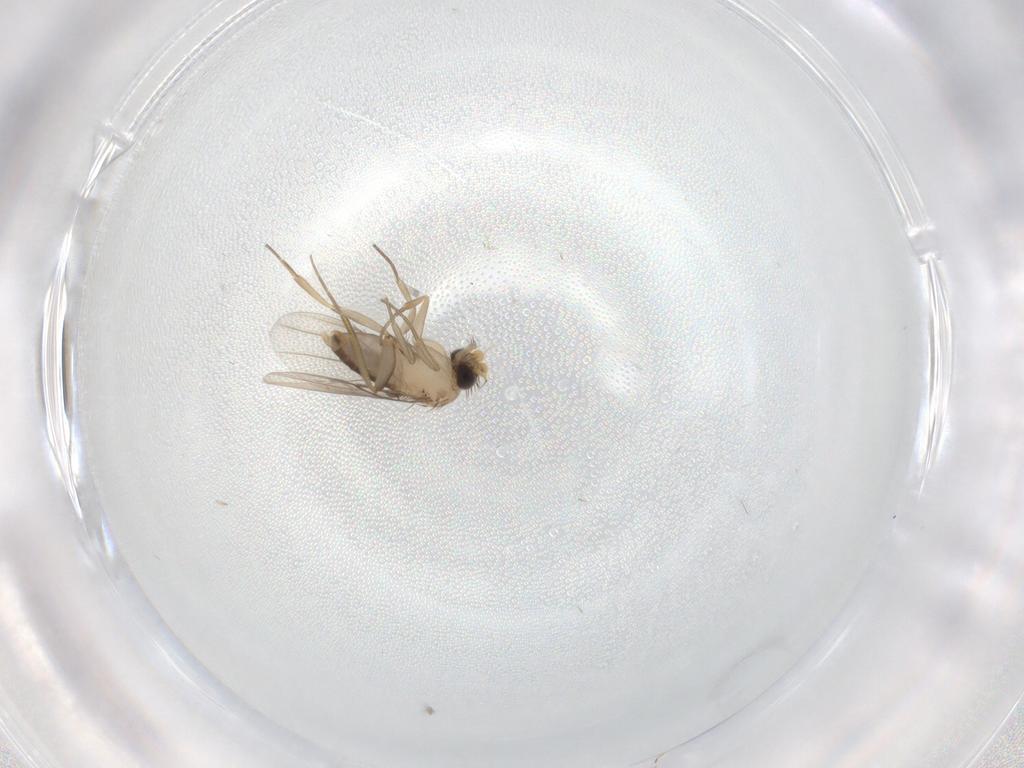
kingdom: Animalia
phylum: Arthropoda
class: Insecta
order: Diptera
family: Phoridae
